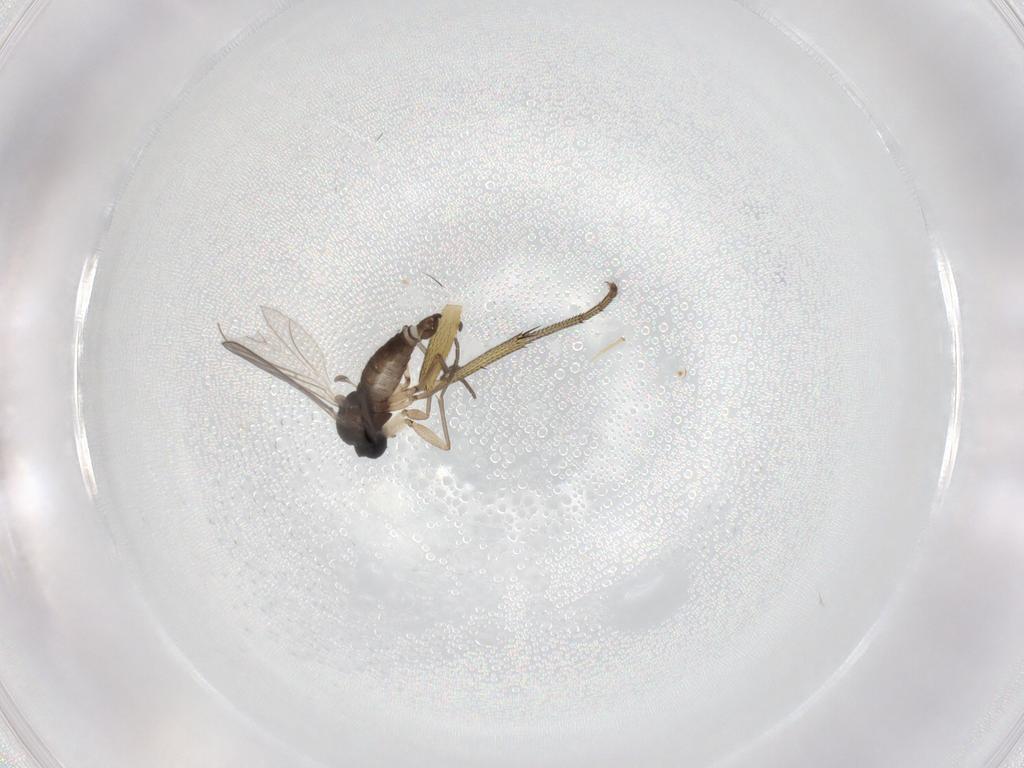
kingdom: Animalia
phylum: Arthropoda
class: Insecta
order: Diptera
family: Sciaridae
